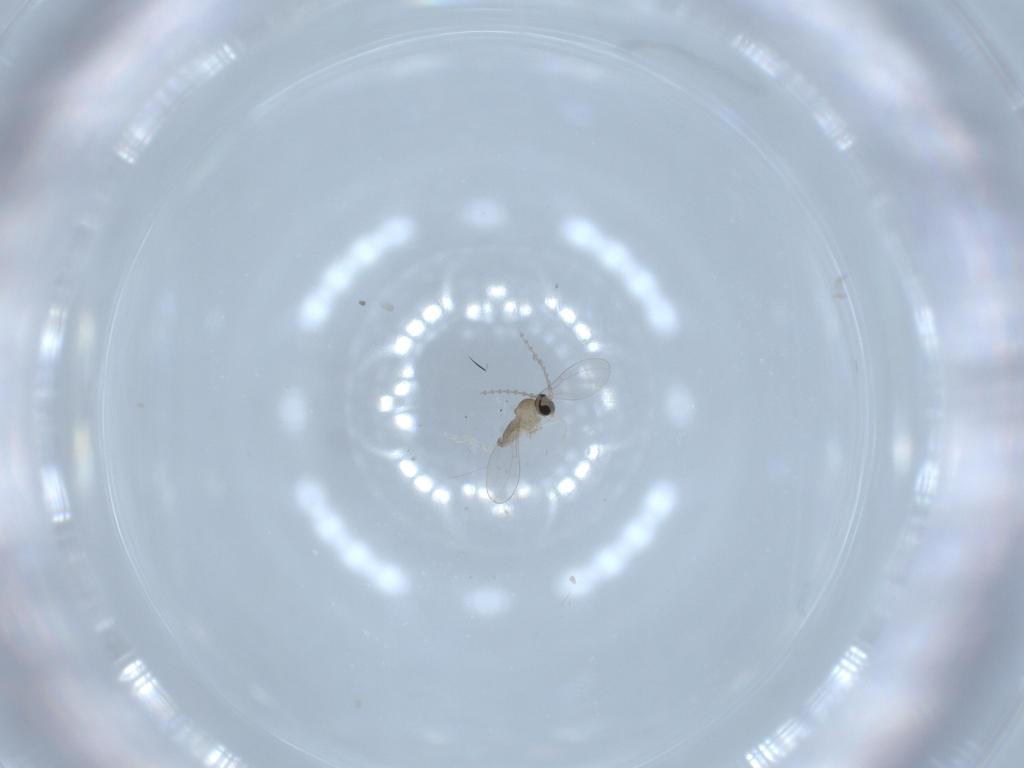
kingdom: Animalia
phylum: Arthropoda
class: Insecta
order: Diptera
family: Cecidomyiidae
